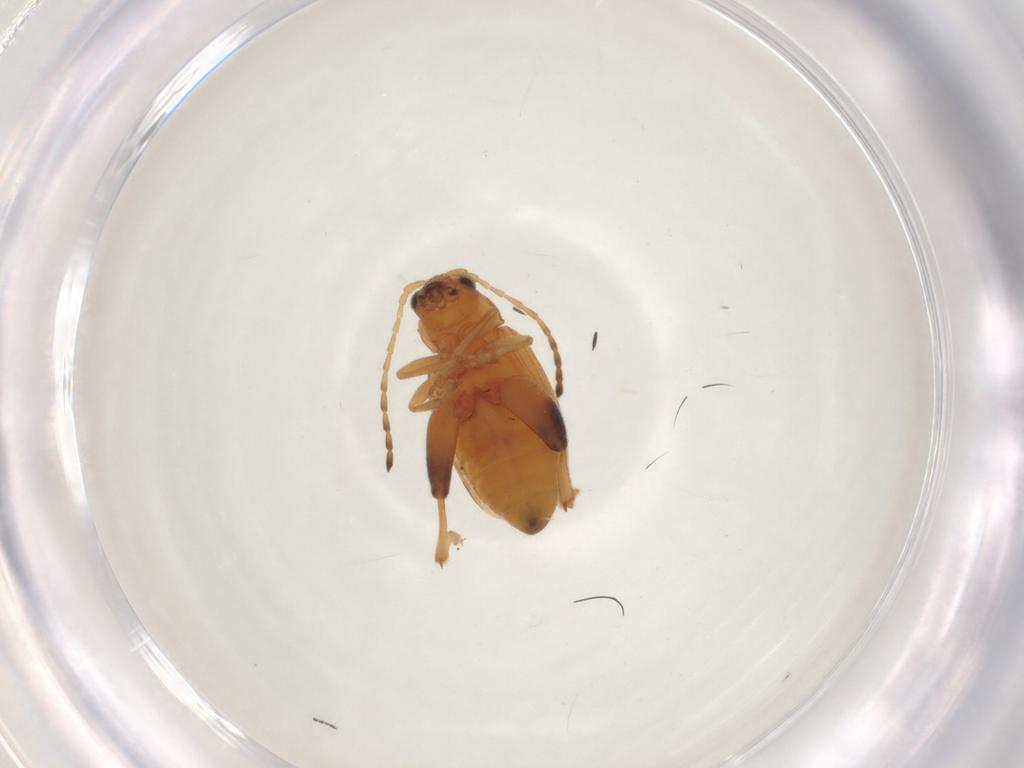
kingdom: Animalia
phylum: Arthropoda
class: Insecta
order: Coleoptera
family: Chrysomelidae
